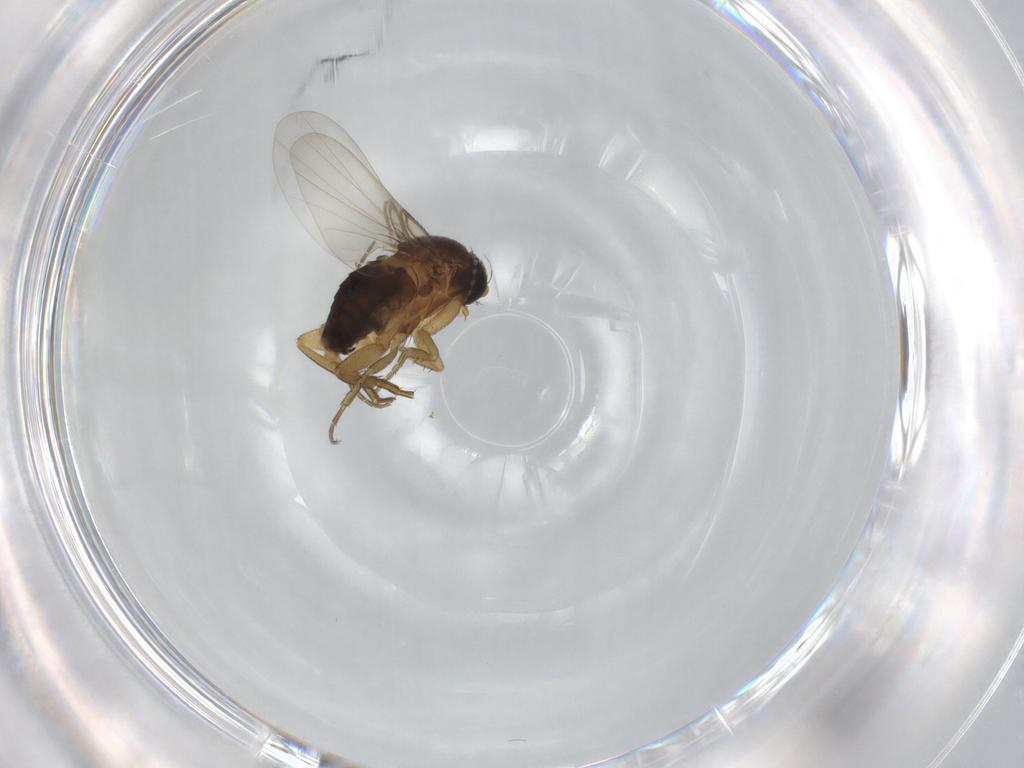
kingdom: Animalia
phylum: Arthropoda
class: Insecta
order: Diptera
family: Phoridae
